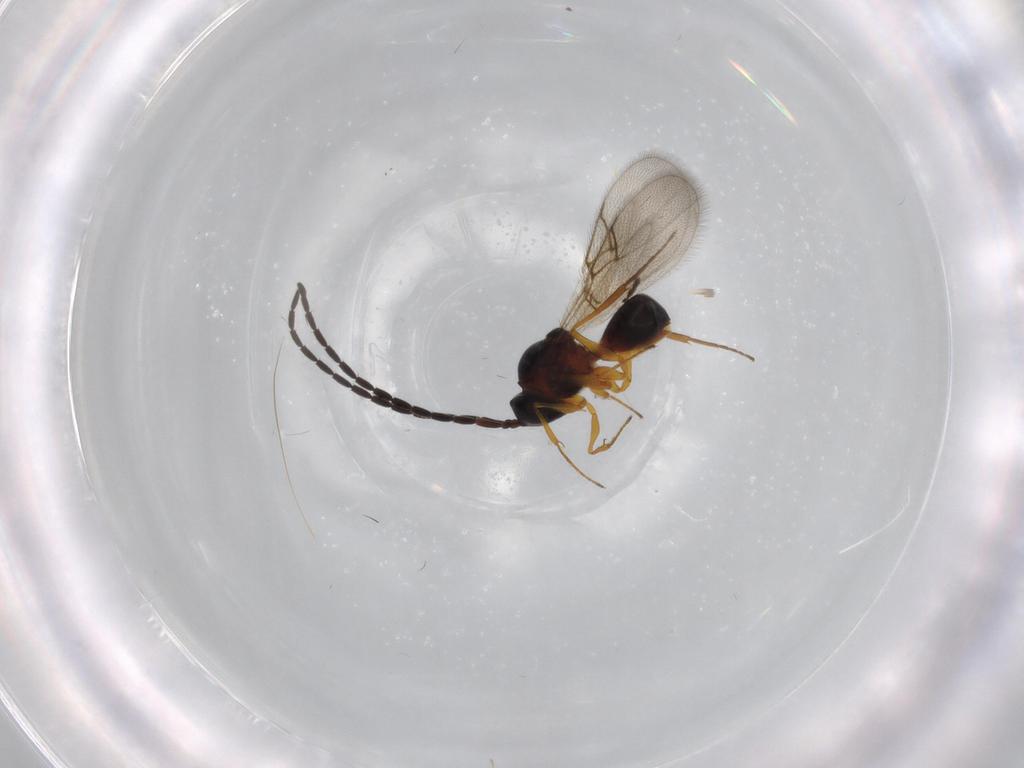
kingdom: Animalia
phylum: Arthropoda
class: Insecta
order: Hymenoptera
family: Figitidae
